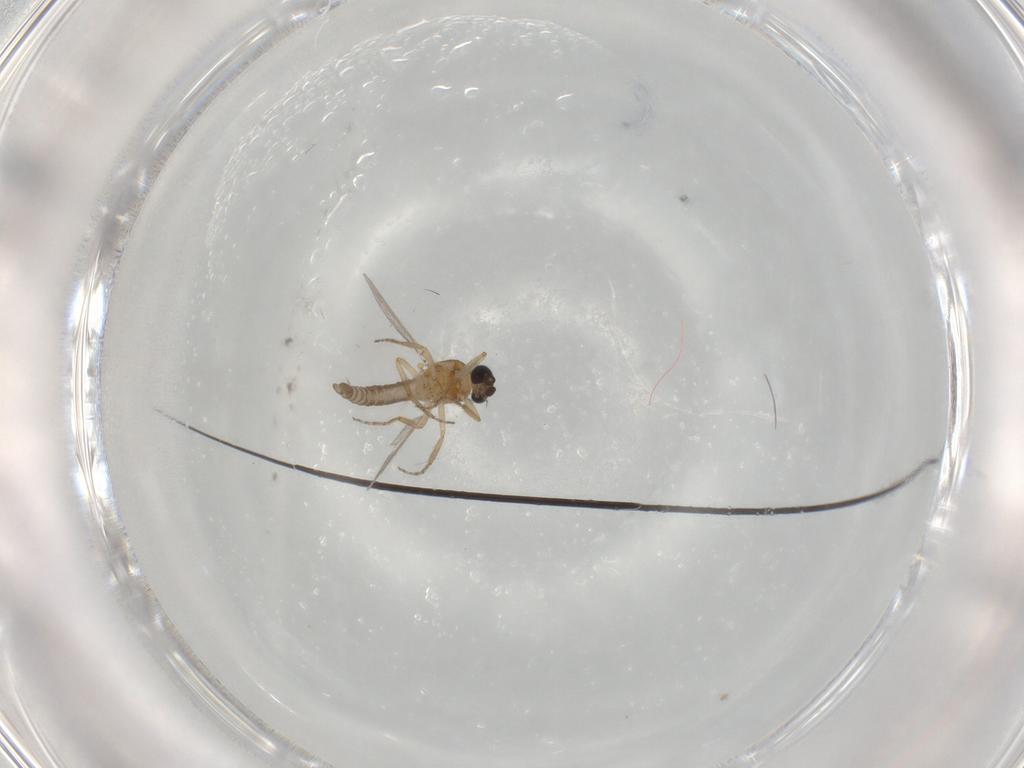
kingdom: Animalia
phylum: Arthropoda
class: Insecta
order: Diptera
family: Ceratopogonidae
